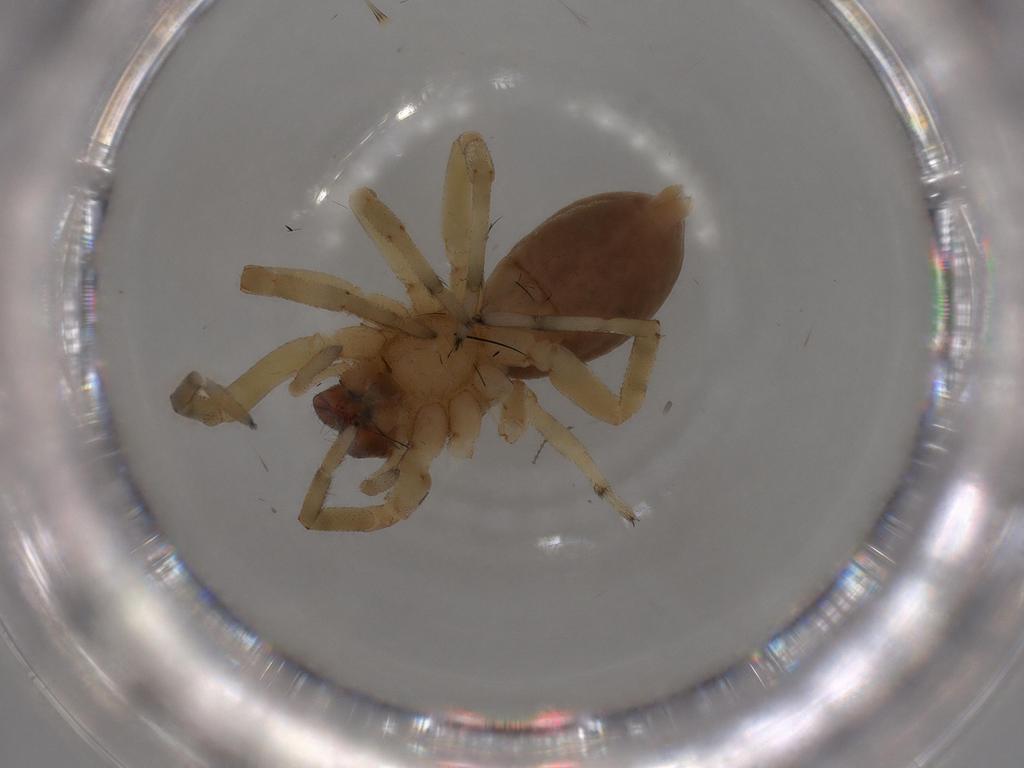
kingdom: Animalia
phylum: Arthropoda
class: Arachnida
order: Araneae
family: Trachelidae
